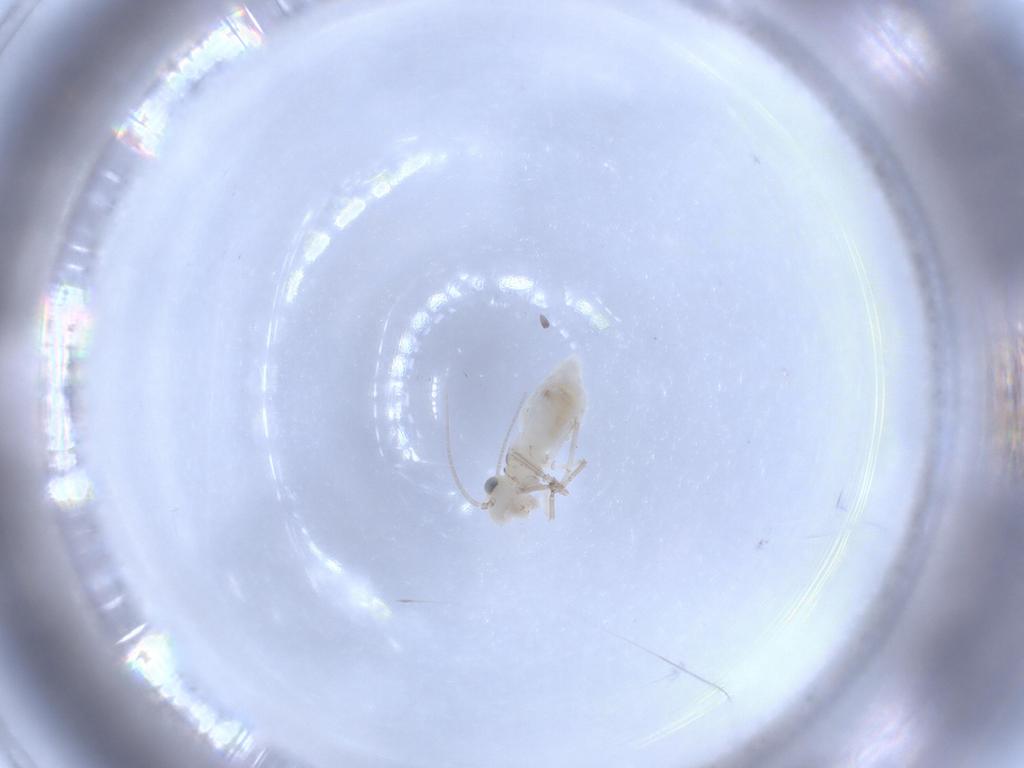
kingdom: Animalia
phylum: Arthropoda
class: Insecta
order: Psocodea
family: Caeciliusidae
